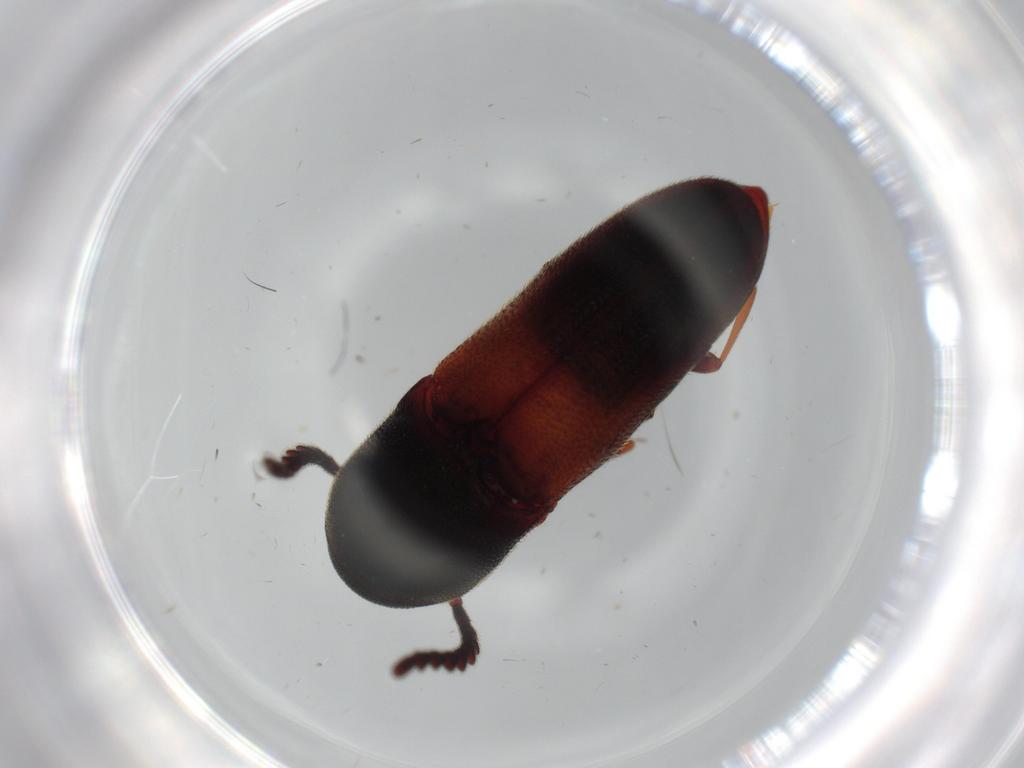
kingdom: Animalia
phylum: Arthropoda
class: Insecta
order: Coleoptera
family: Eucnemidae
